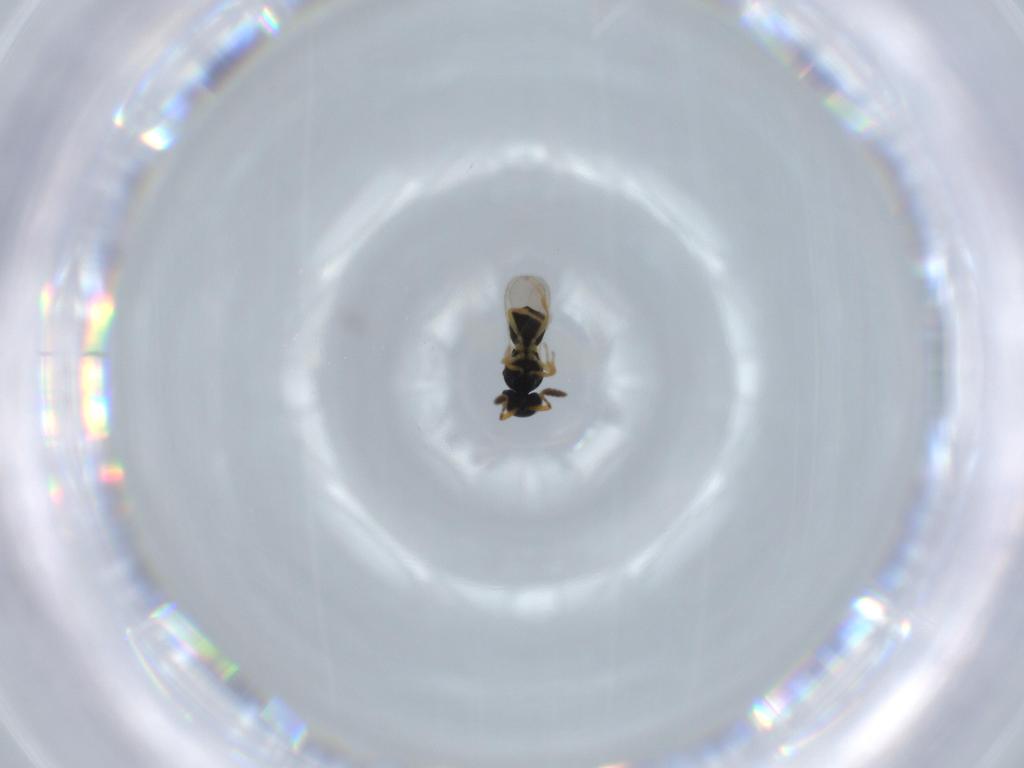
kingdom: Animalia
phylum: Arthropoda
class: Insecta
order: Hymenoptera
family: Scelionidae
